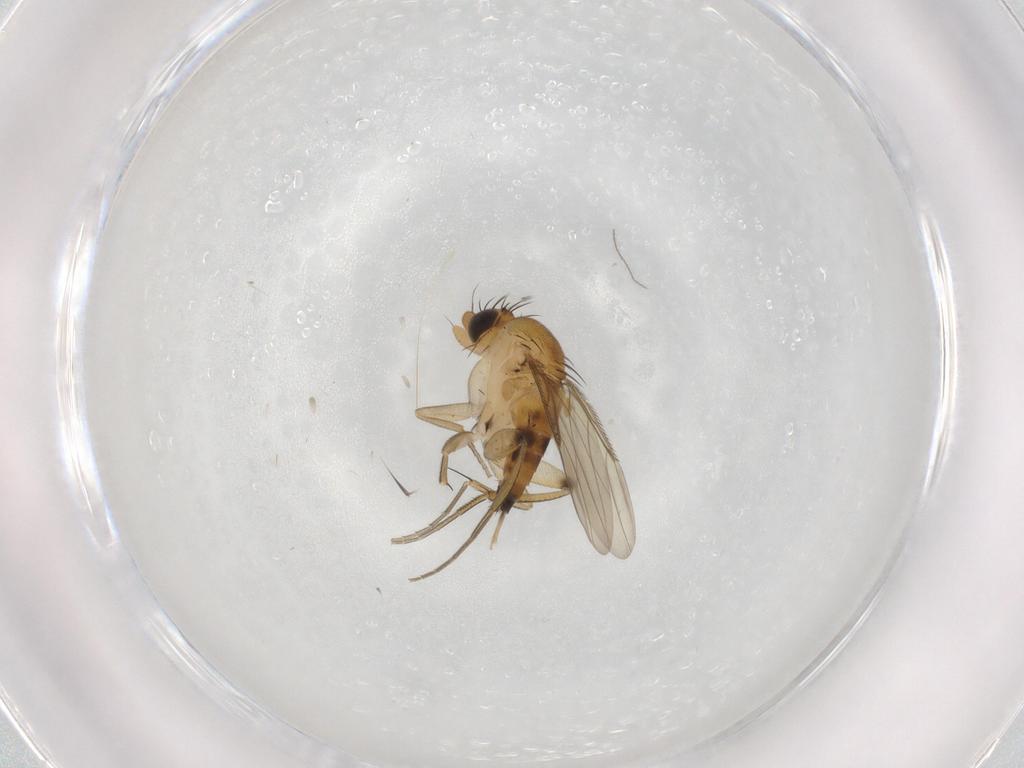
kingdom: Animalia
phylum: Arthropoda
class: Insecta
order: Diptera
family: Phoridae
